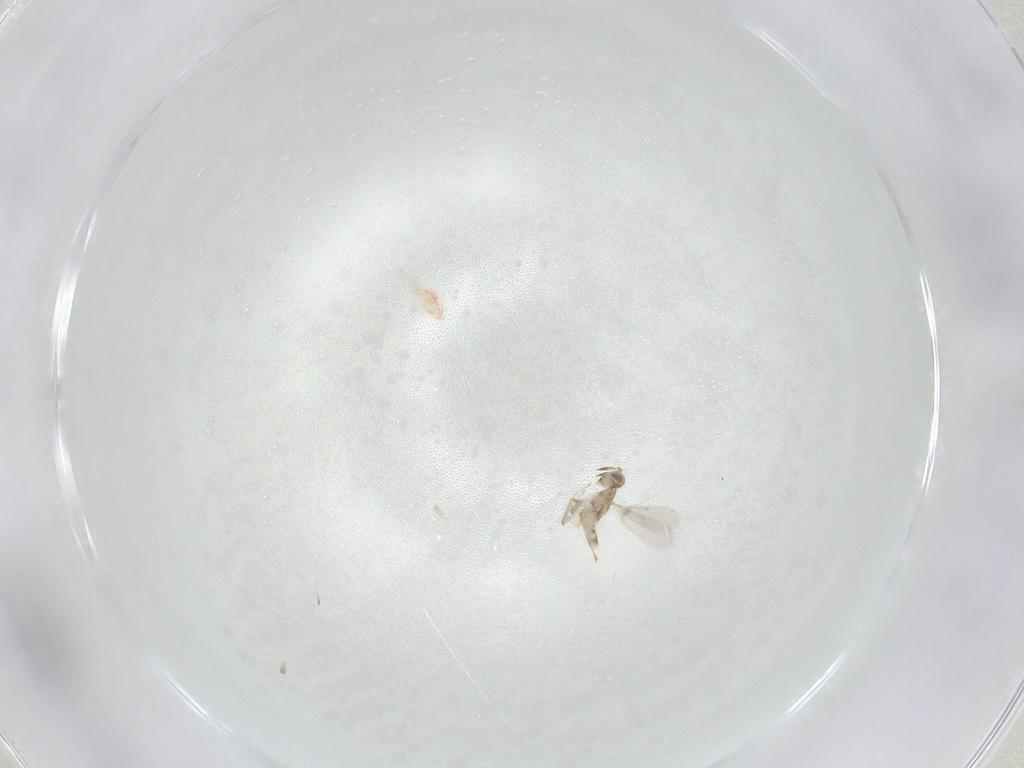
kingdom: Animalia
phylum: Arthropoda
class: Insecta
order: Hymenoptera
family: Aphelinidae
